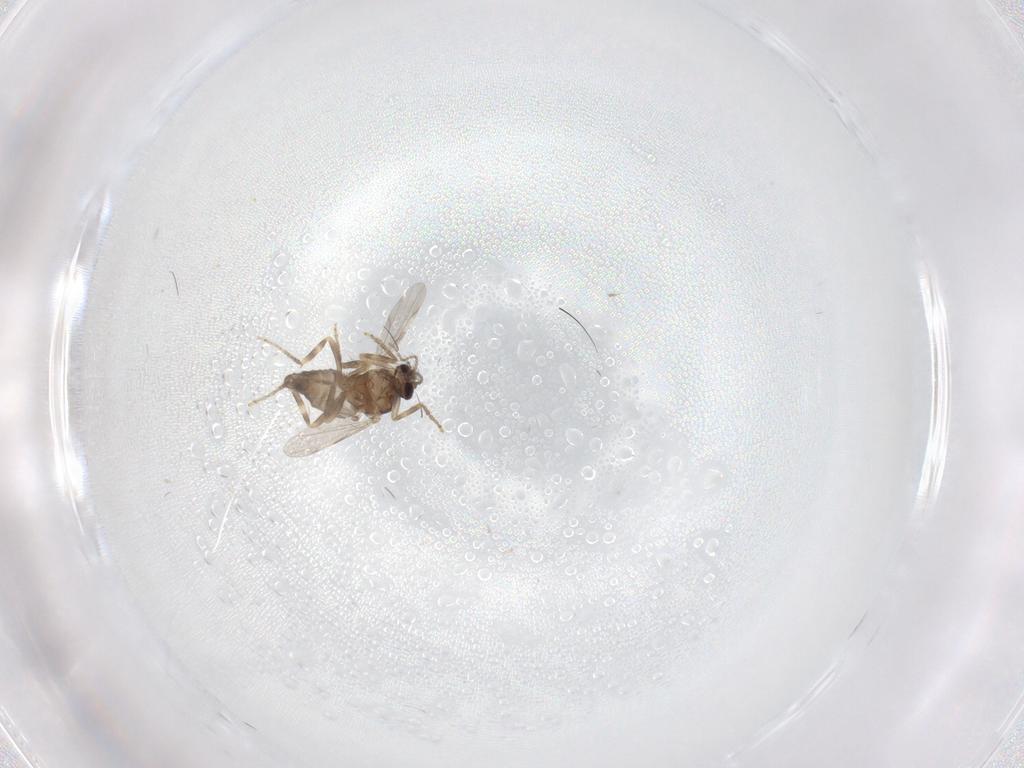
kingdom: Animalia
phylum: Arthropoda
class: Insecta
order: Diptera
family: Ceratopogonidae
